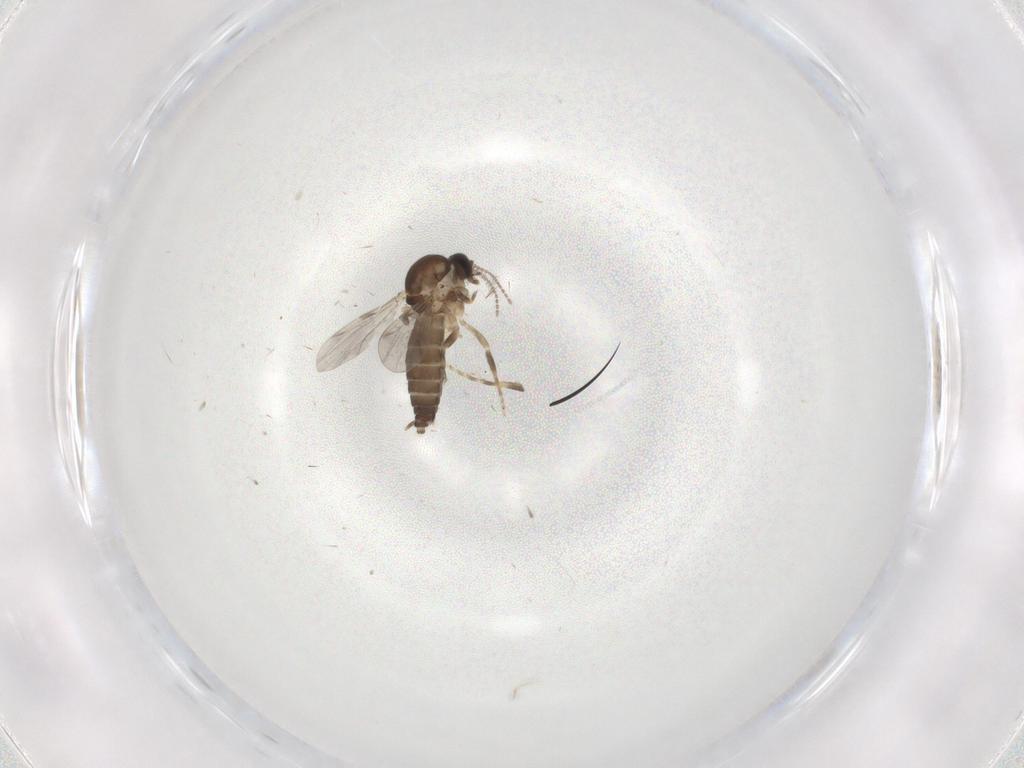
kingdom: Animalia
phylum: Arthropoda
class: Insecta
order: Diptera
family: Ceratopogonidae
